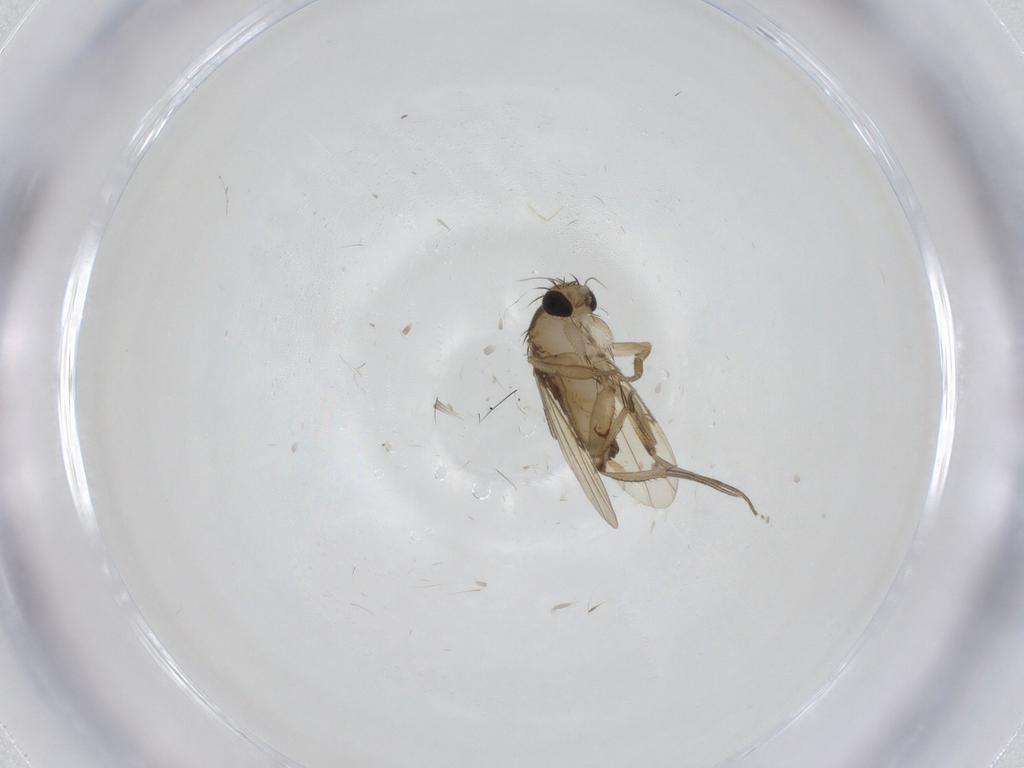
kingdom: Animalia
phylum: Arthropoda
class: Insecta
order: Diptera
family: Phoridae
